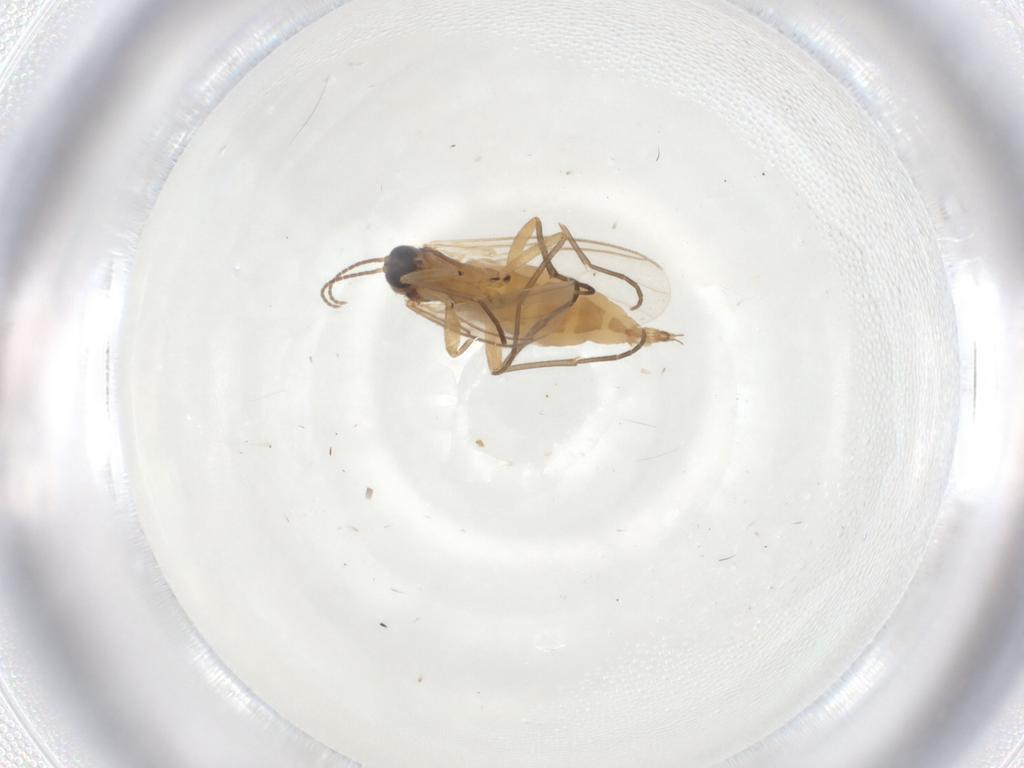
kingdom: Animalia
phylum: Arthropoda
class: Insecta
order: Diptera
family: Sciaridae
